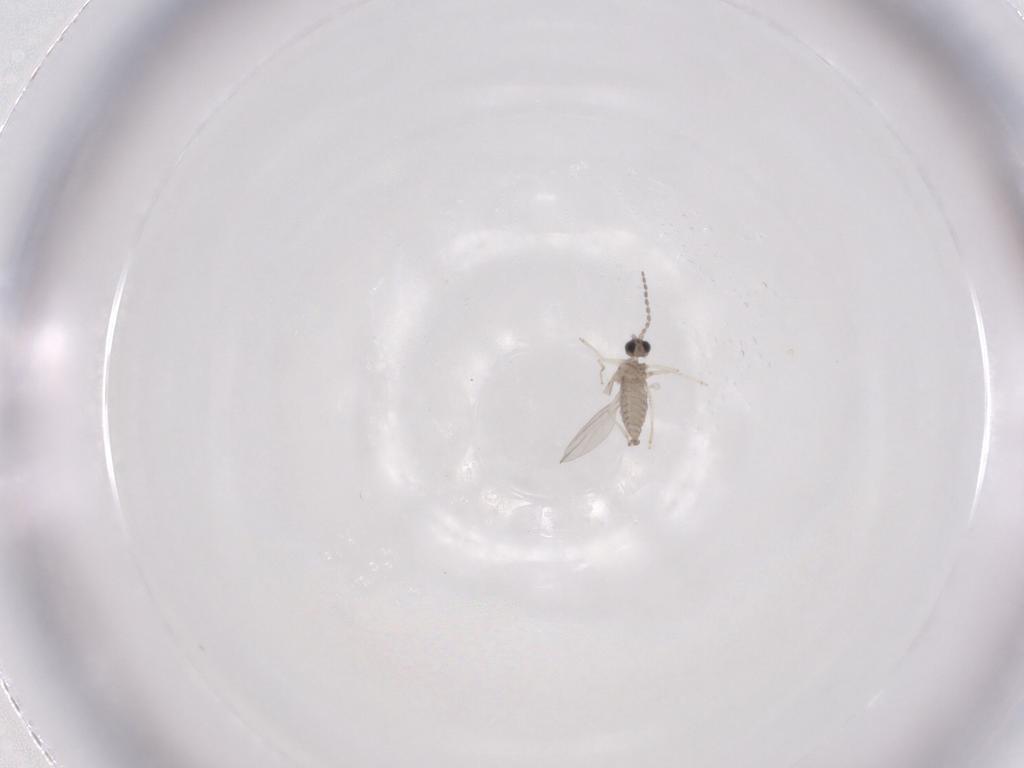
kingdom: Animalia
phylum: Arthropoda
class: Insecta
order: Diptera
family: Cecidomyiidae
